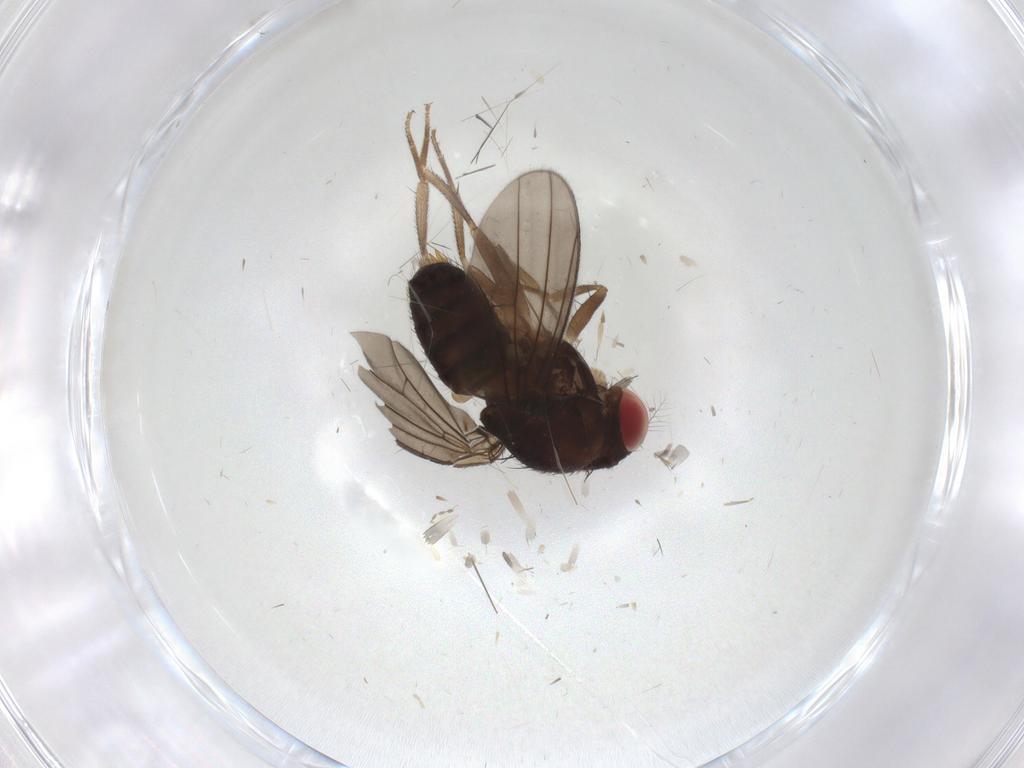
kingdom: Animalia
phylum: Arthropoda
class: Insecta
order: Diptera
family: Drosophilidae
